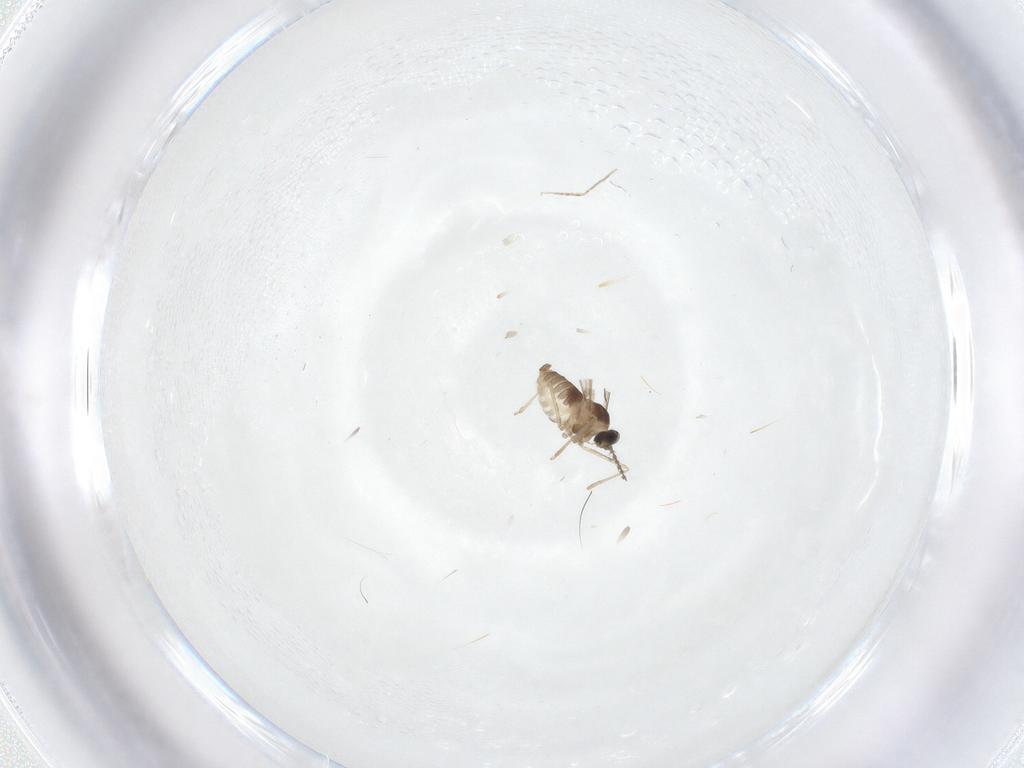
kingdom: Animalia
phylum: Arthropoda
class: Insecta
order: Diptera
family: Cecidomyiidae
